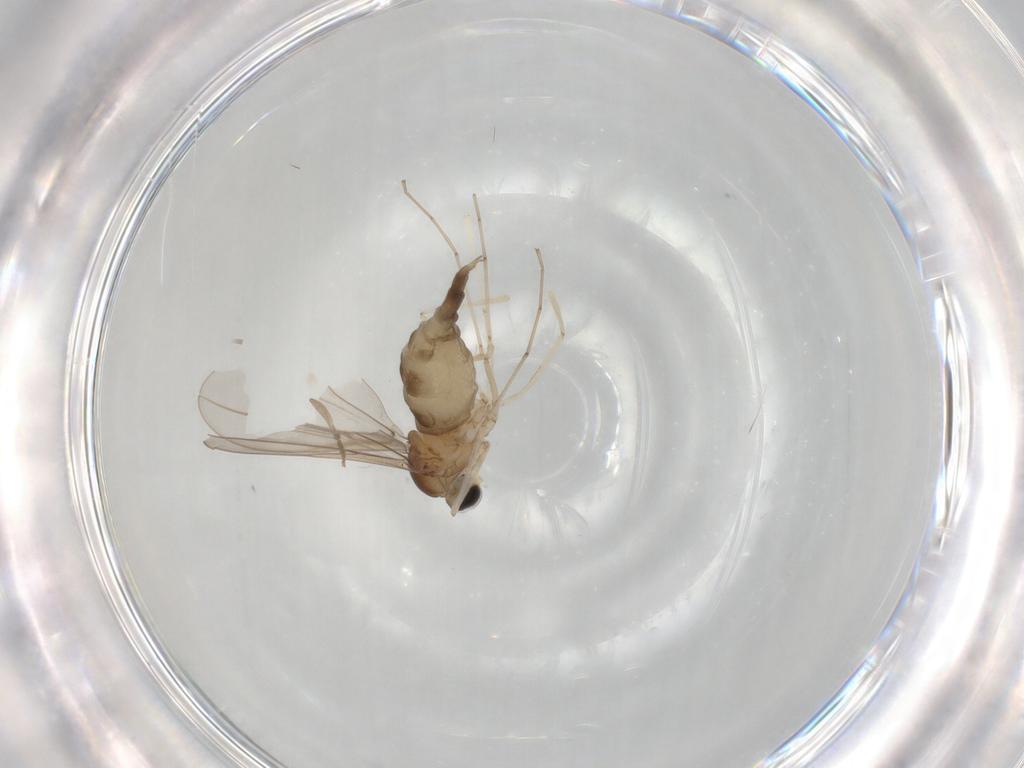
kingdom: Animalia
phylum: Arthropoda
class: Insecta
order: Diptera
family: Cecidomyiidae
